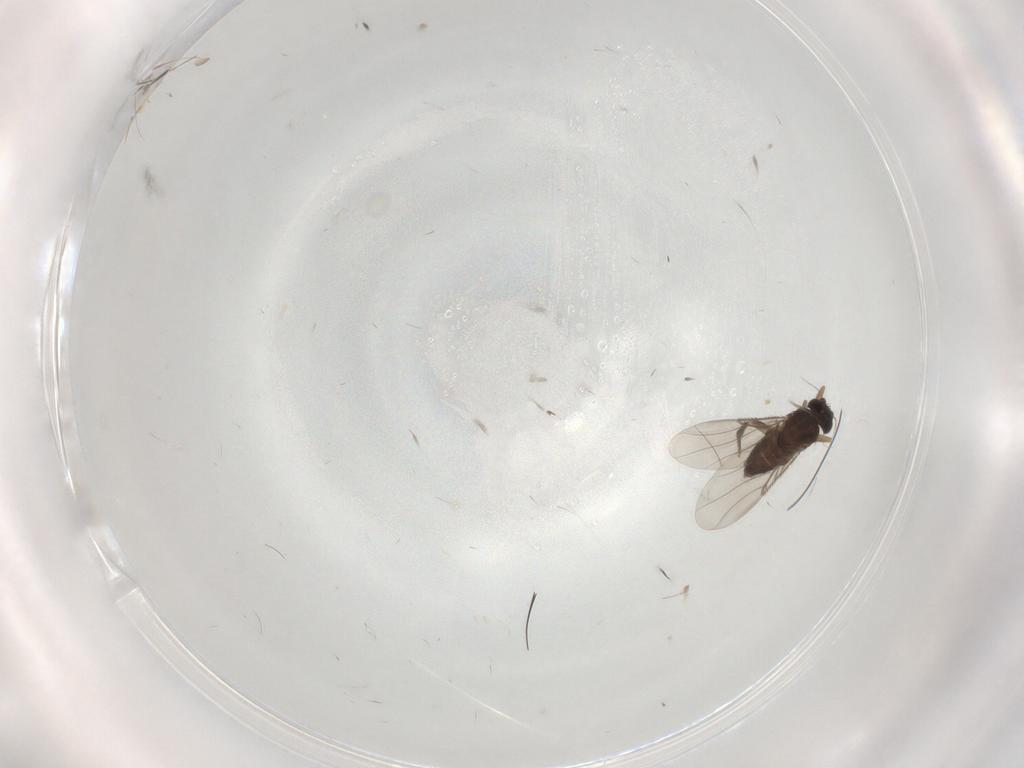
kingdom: Animalia
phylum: Arthropoda
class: Insecta
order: Diptera
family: Phoridae
